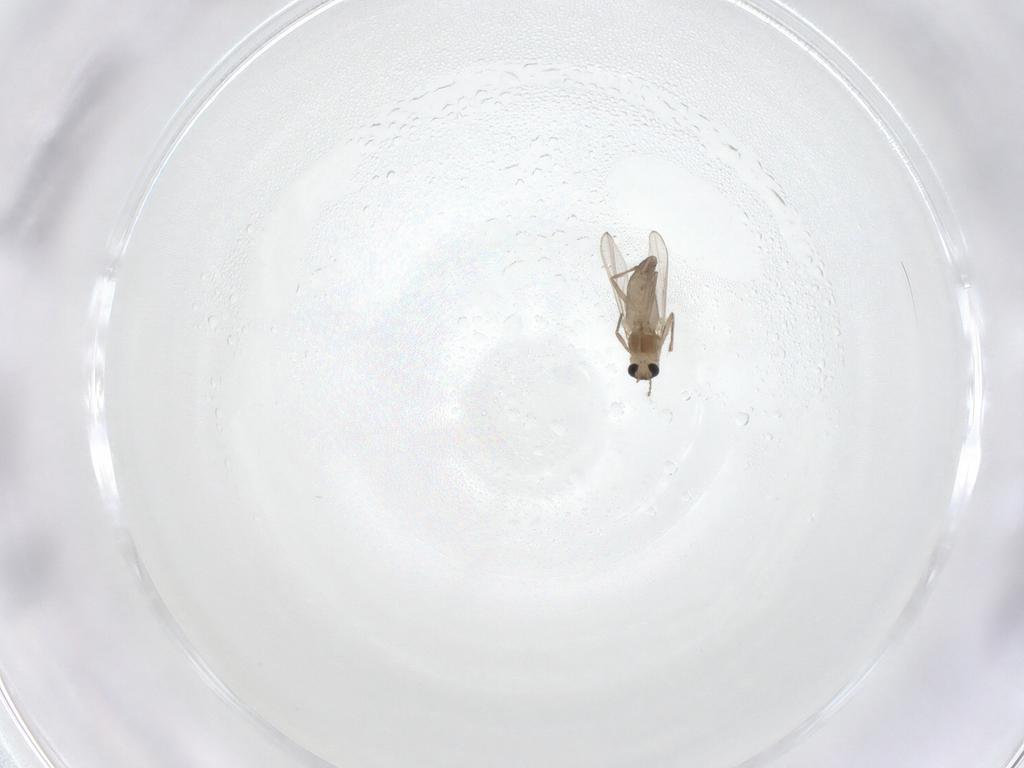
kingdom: Animalia
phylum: Arthropoda
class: Insecta
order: Diptera
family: Chironomidae
